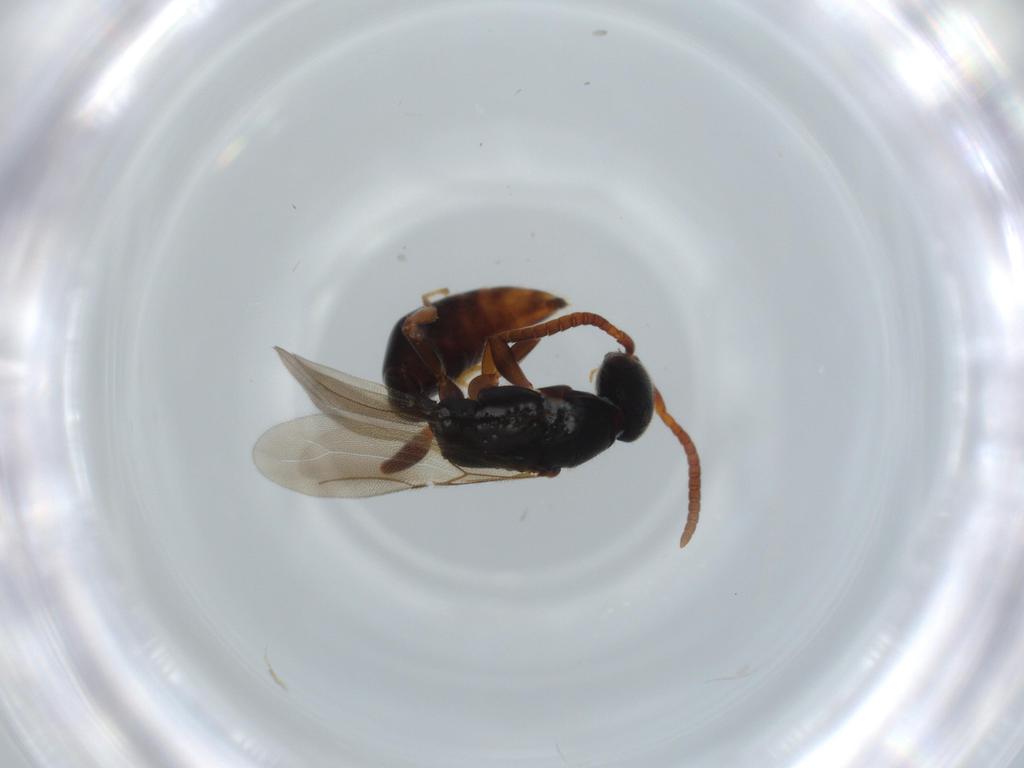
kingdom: Animalia
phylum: Arthropoda
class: Insecta
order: Hymenoptera
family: Bethylidae
